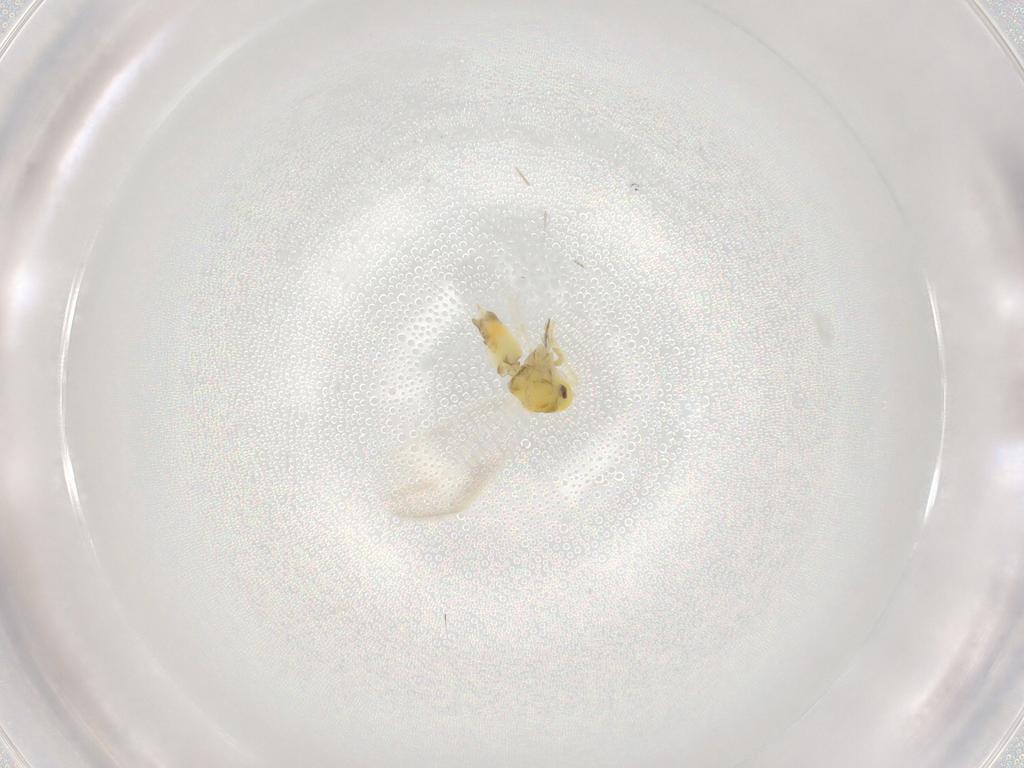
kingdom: Animalia
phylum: Arthropoda
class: Insecta
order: Hemiptera
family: Aleyrodidae
